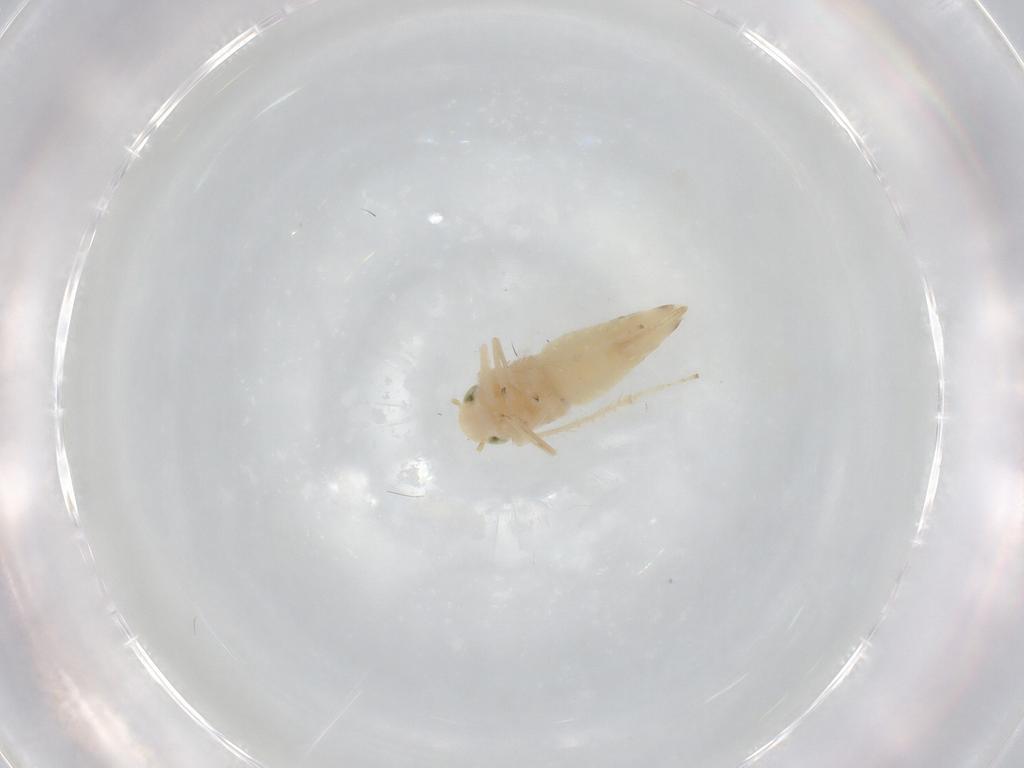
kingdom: Animalia
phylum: Arthropoda
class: Insecta
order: Hemiptera
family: Cicadellidae
